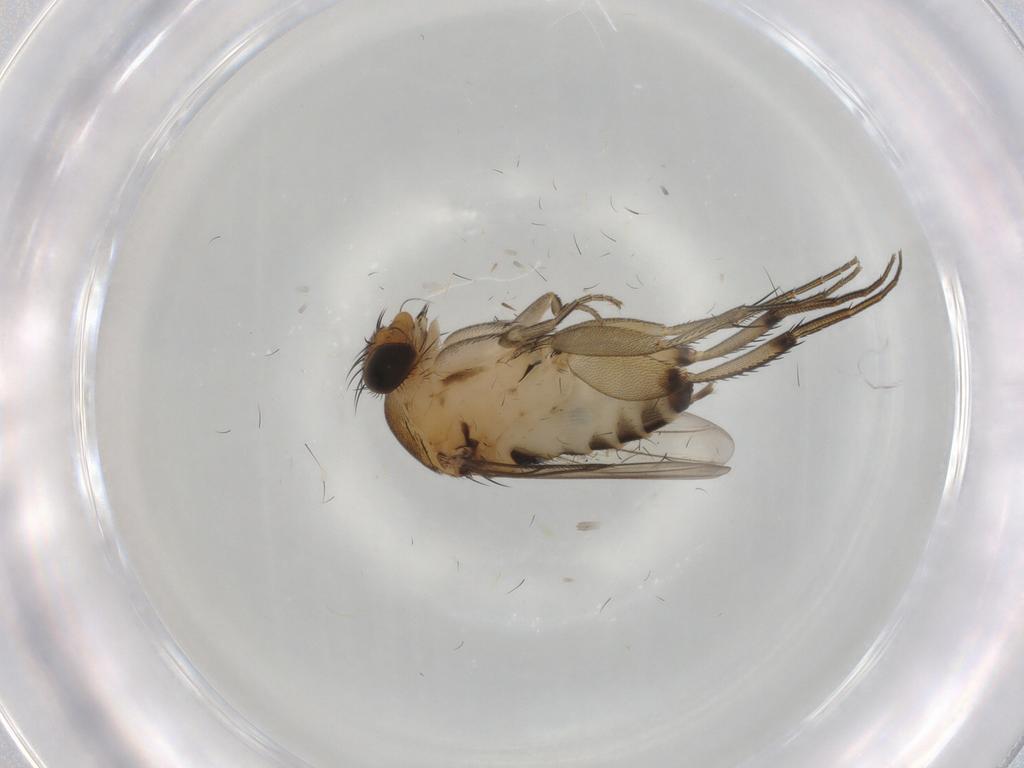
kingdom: Animalia
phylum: Arthropoda
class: Insecta
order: Diptera
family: Phoridae
